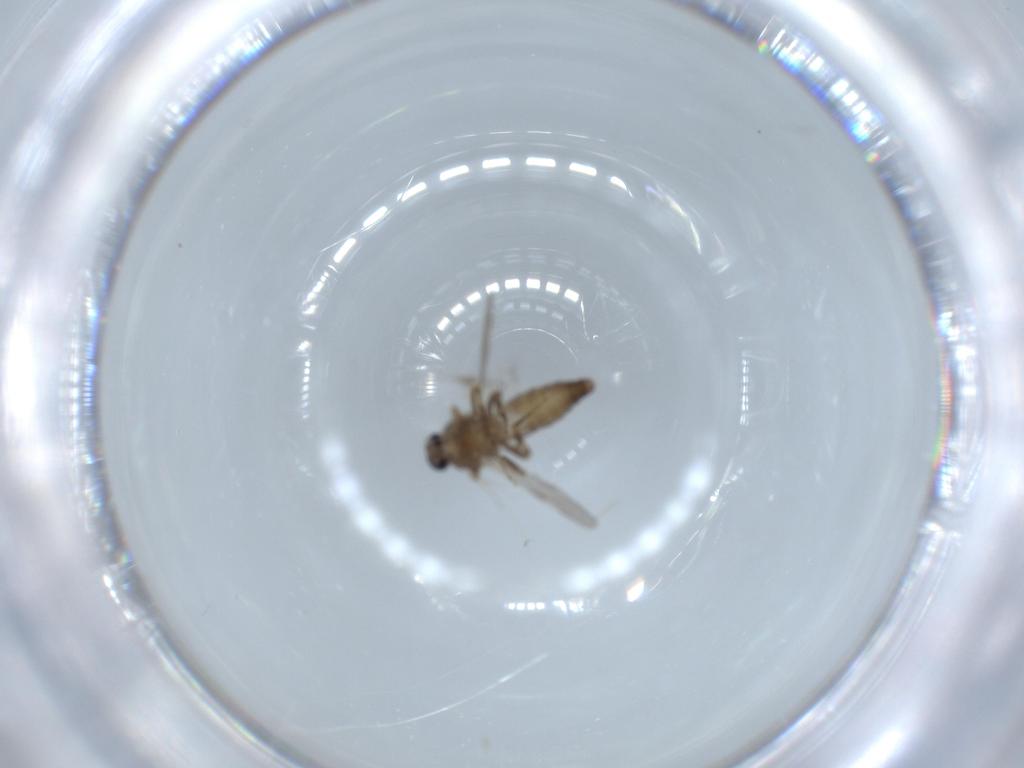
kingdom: Animalia
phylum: Arthropoda
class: Insecta
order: Diptera
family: Ceratopogonidae
